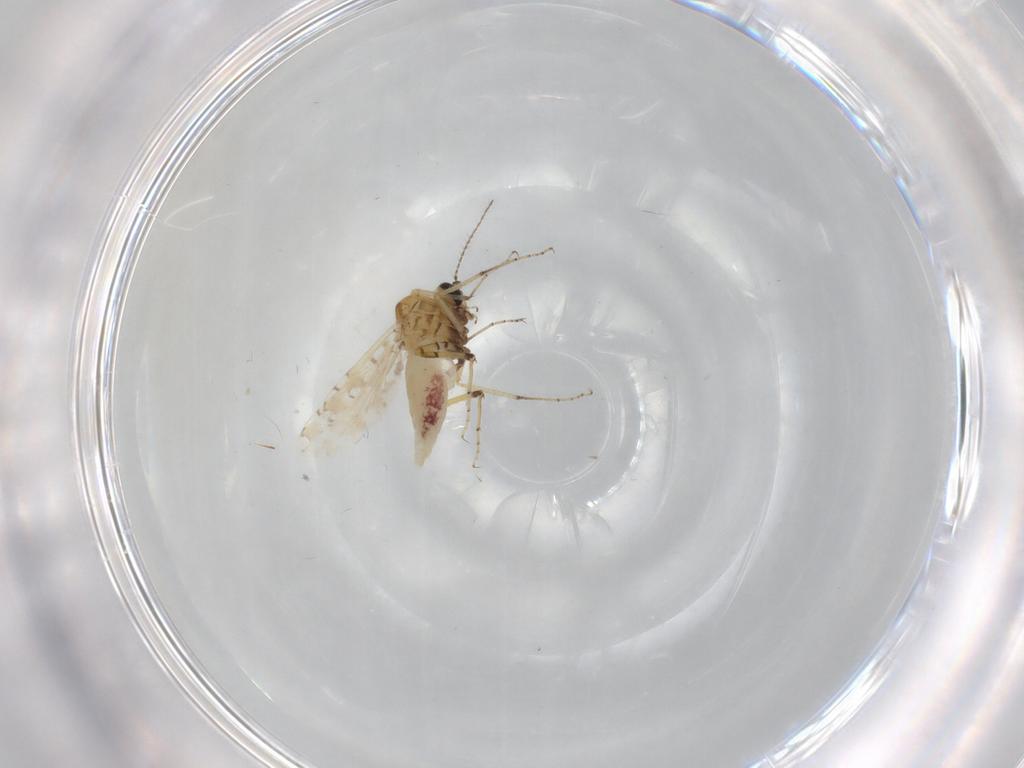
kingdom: Animalia
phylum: Arthropoda
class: Insecta
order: Diptera
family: Ceratopogonidae
